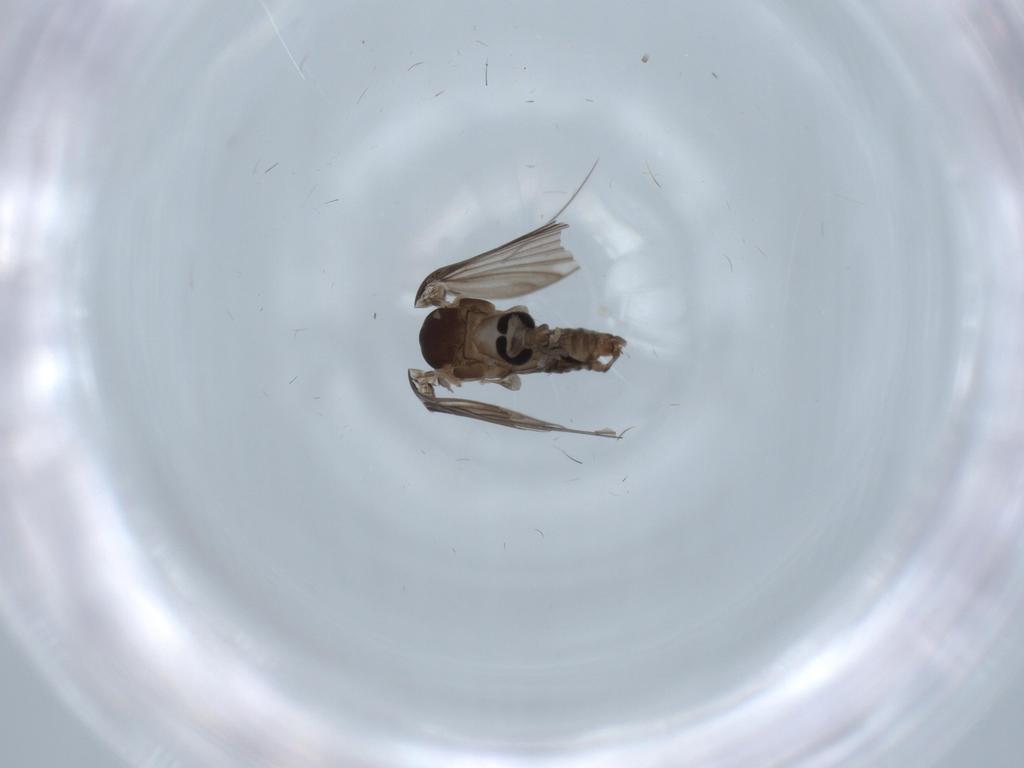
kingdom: Animalia
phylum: Arthropoda
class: Insecta
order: Diptera
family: Psychodidae
